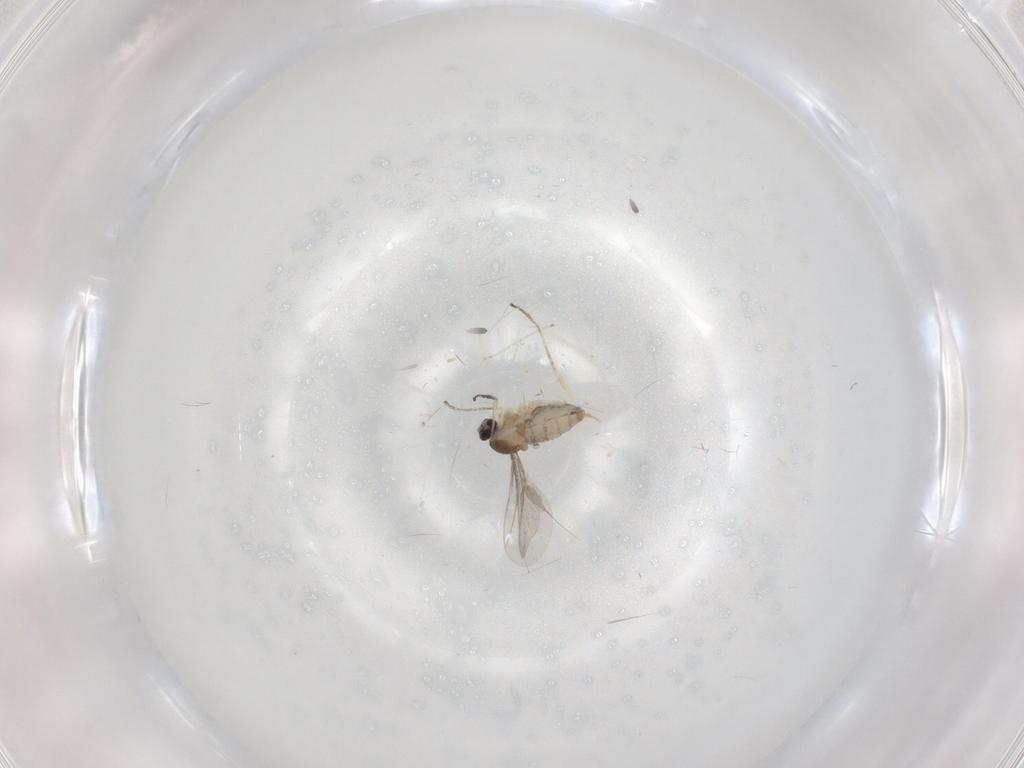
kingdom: Animalia
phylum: Arthropoda
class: Insecta
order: Diptera
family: Cecidomyiidae
